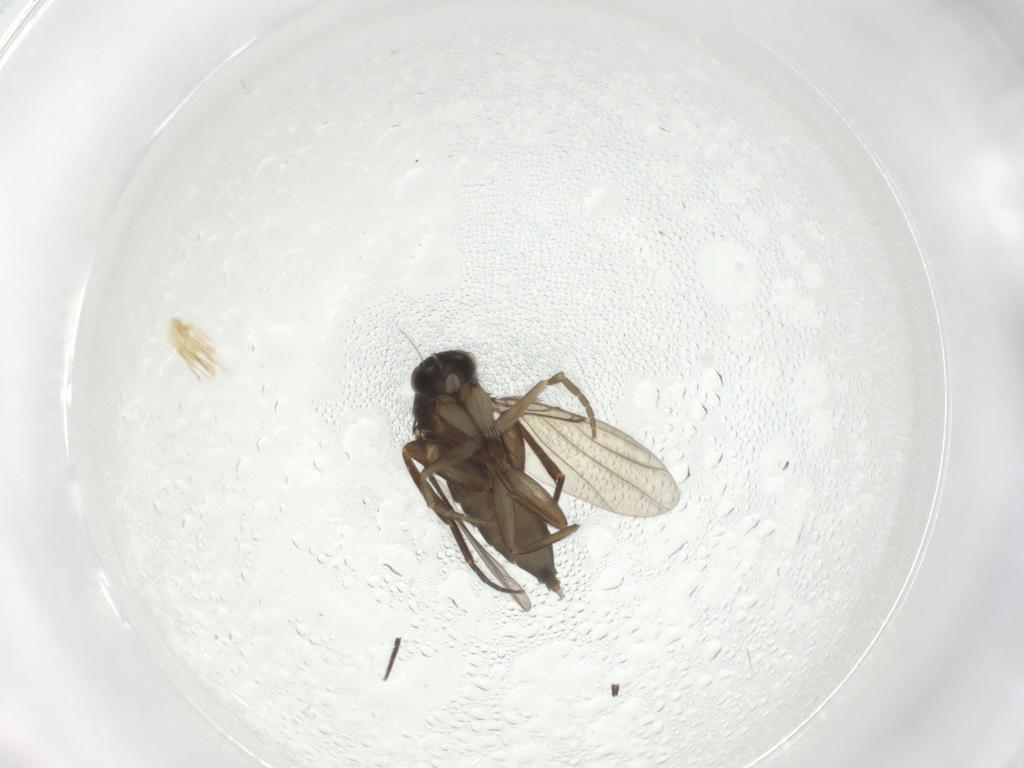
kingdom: Animalia
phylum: Arthropoda
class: Insecta
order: Diptera
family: Phoridae
